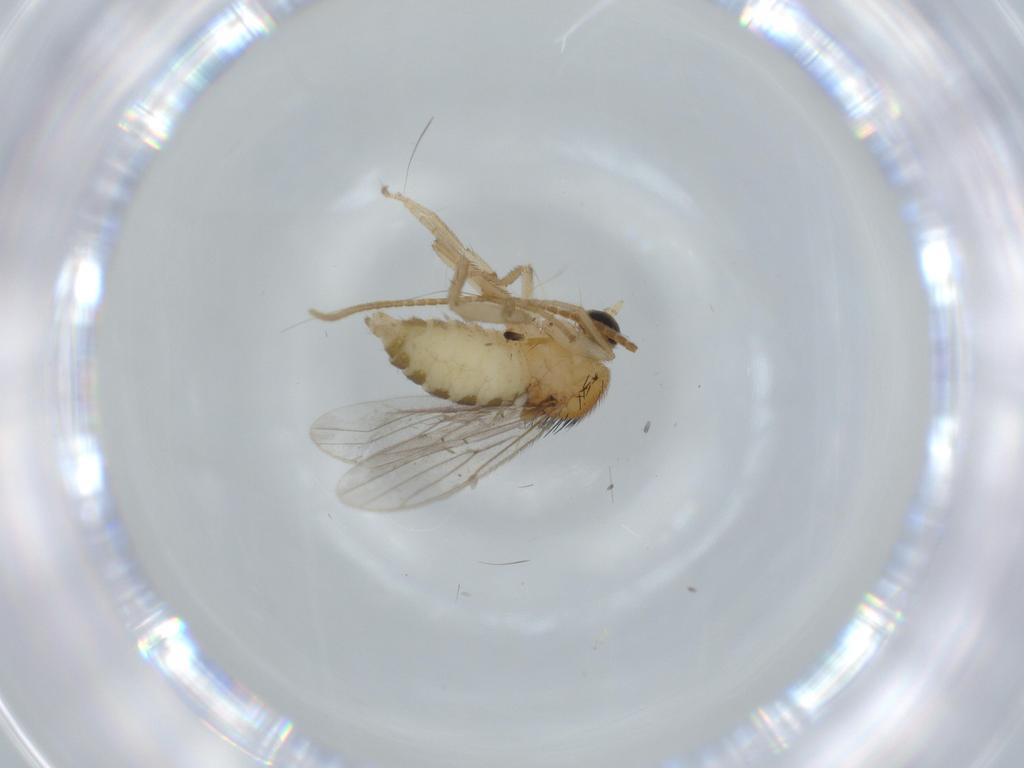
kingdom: Animalia
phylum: Arthropoda
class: Insecta
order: Diptera
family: Hybotidae
